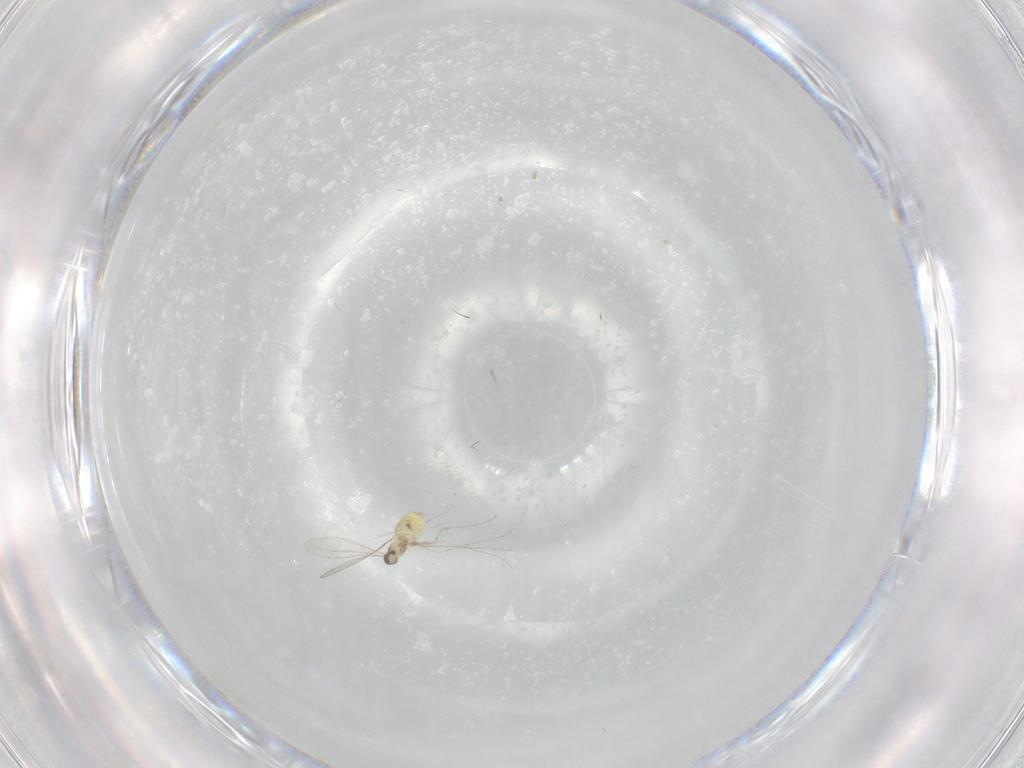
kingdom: Animalia
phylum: Arthropoda
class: Insecta
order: Diptera
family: Cecidomyiidae
